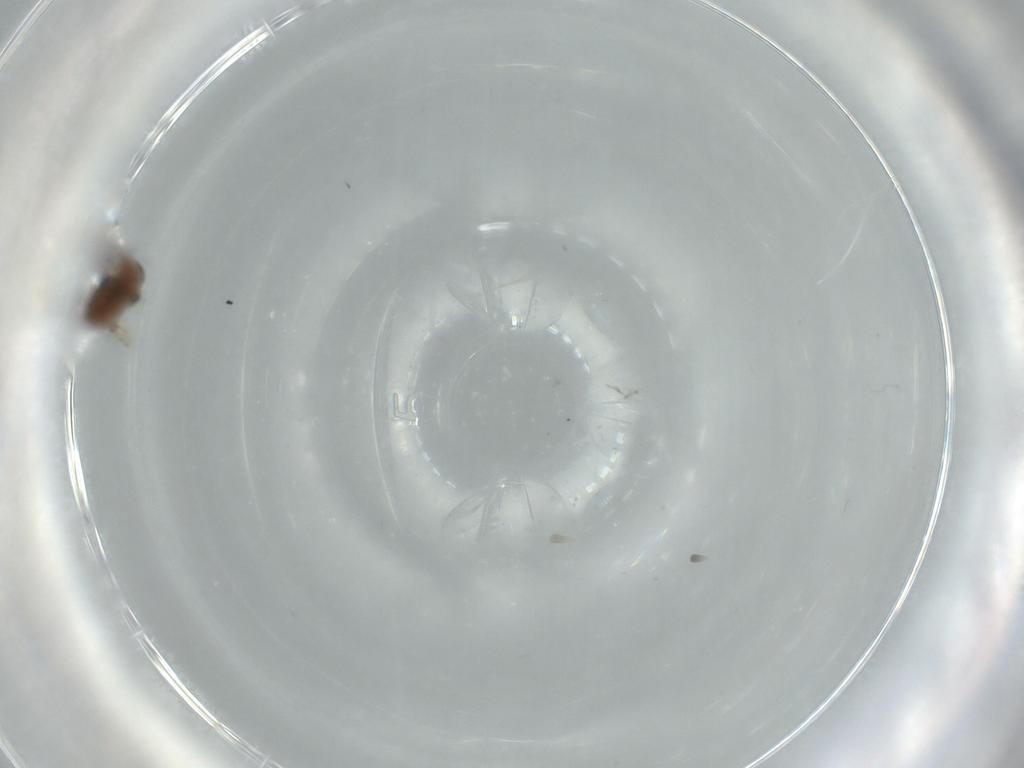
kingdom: Animalia
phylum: Arthropoda
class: Insecta
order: Diptera
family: Ceratopogonidae
